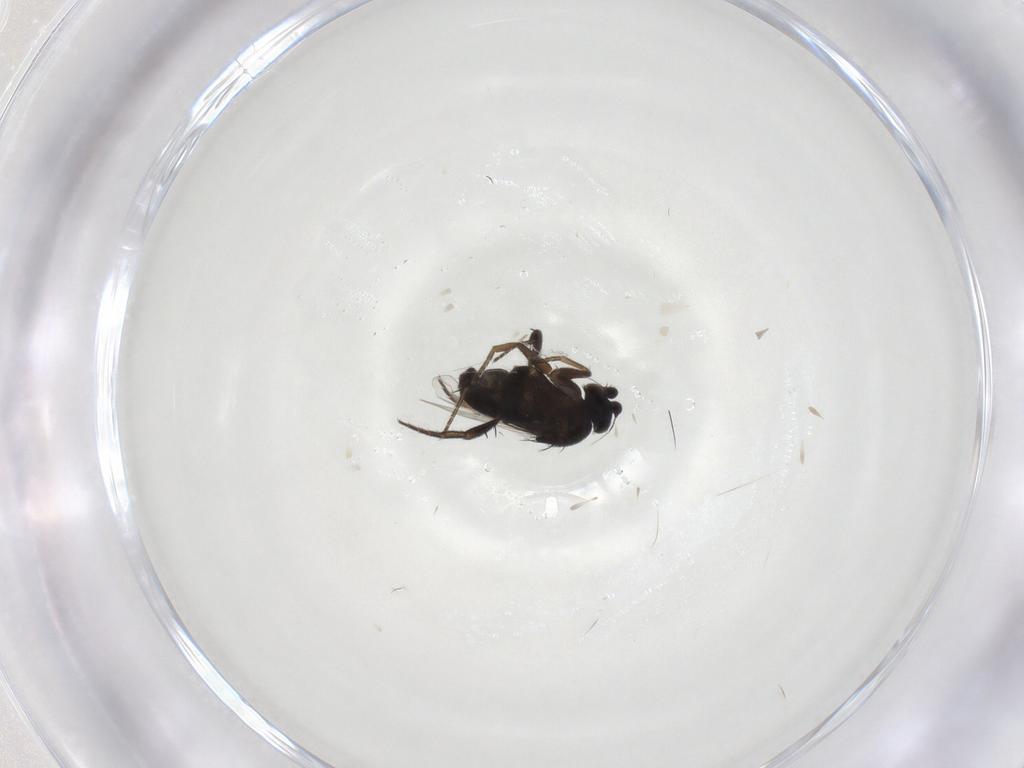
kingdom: Animalia
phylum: Arthropoda
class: Insecta
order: Diptera
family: Phoridae
